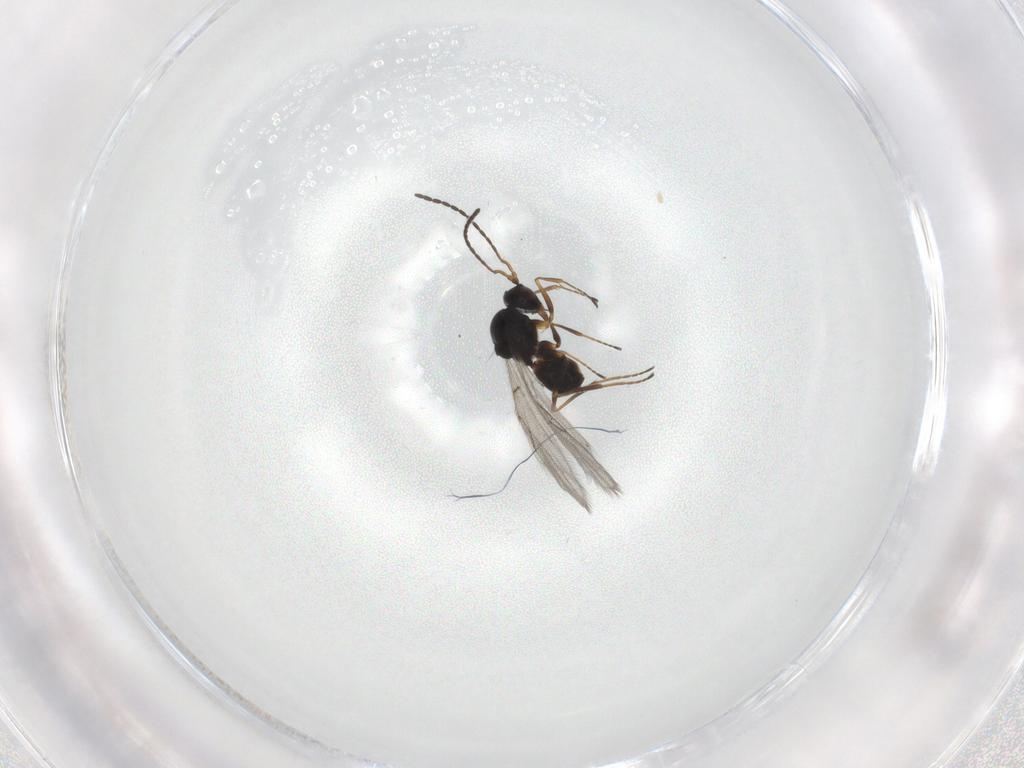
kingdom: Animalia
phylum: Arthropoda
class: Insecta
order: Hymenoptera
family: Figitidae
